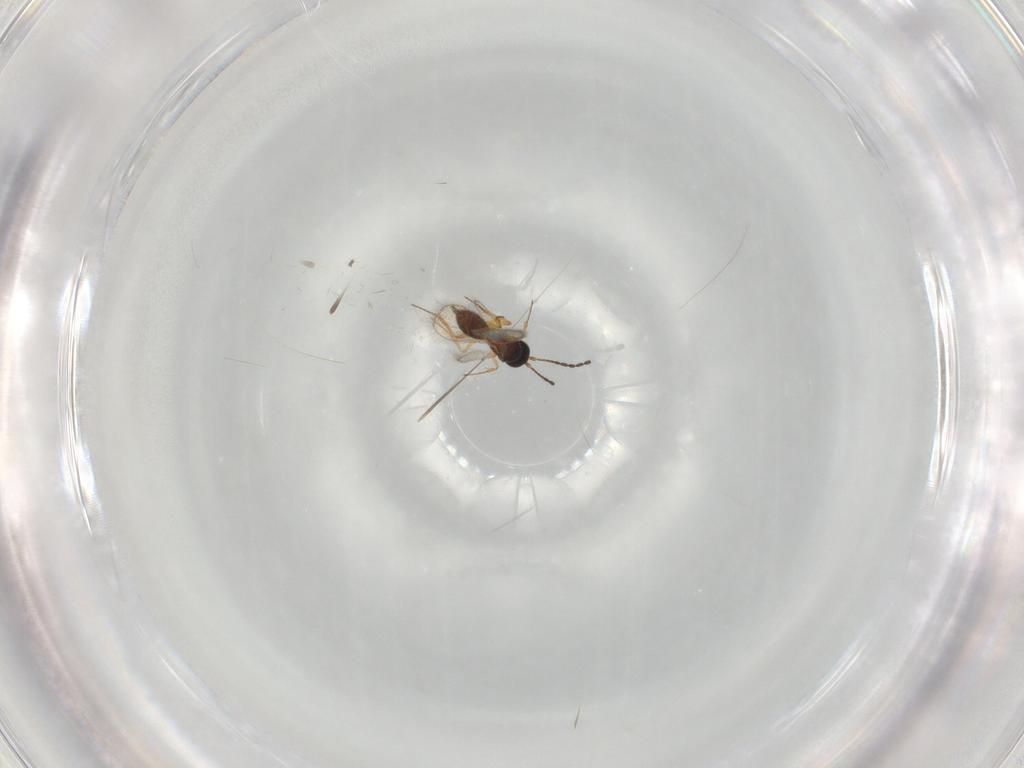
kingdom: Animalia
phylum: Arthropoda
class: Insecta
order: Hymenoptera
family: Figitidae
